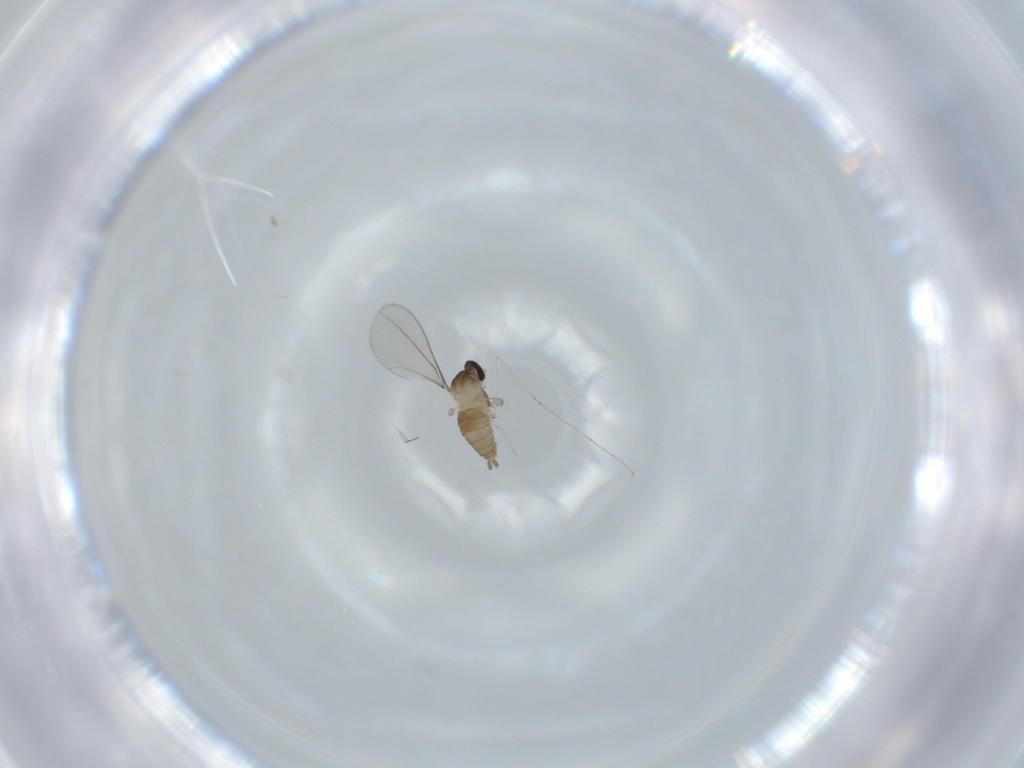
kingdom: Animalia
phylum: Arthropoda
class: Insecta
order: Diptera
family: Cecidomyiidae
